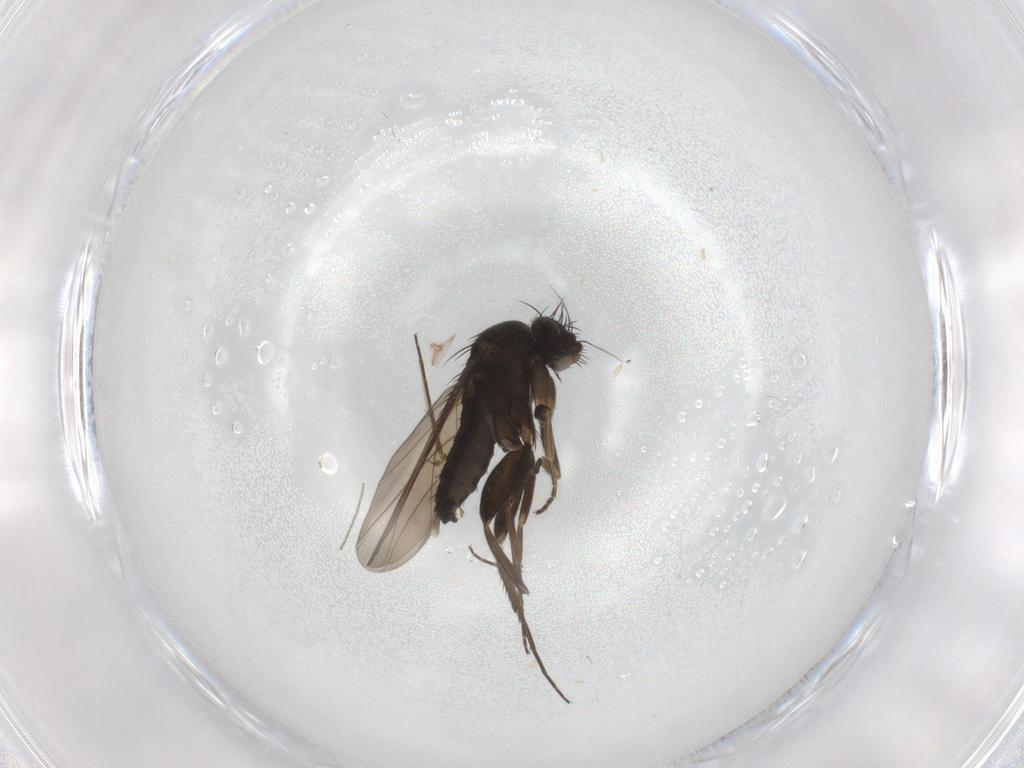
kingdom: Animalia
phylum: Arthropoda
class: Insecta
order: Diptera
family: Phoridae
